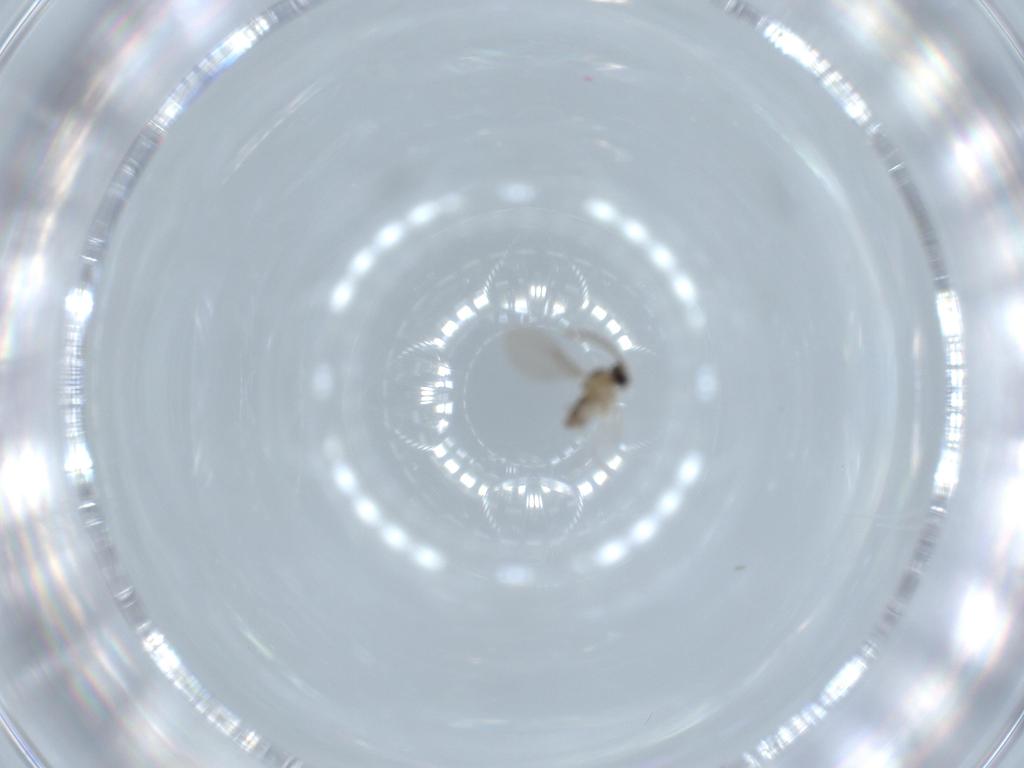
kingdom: Animalia
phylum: Arthropoda
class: Insecta
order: Diptera
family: Cecidomyiidae
